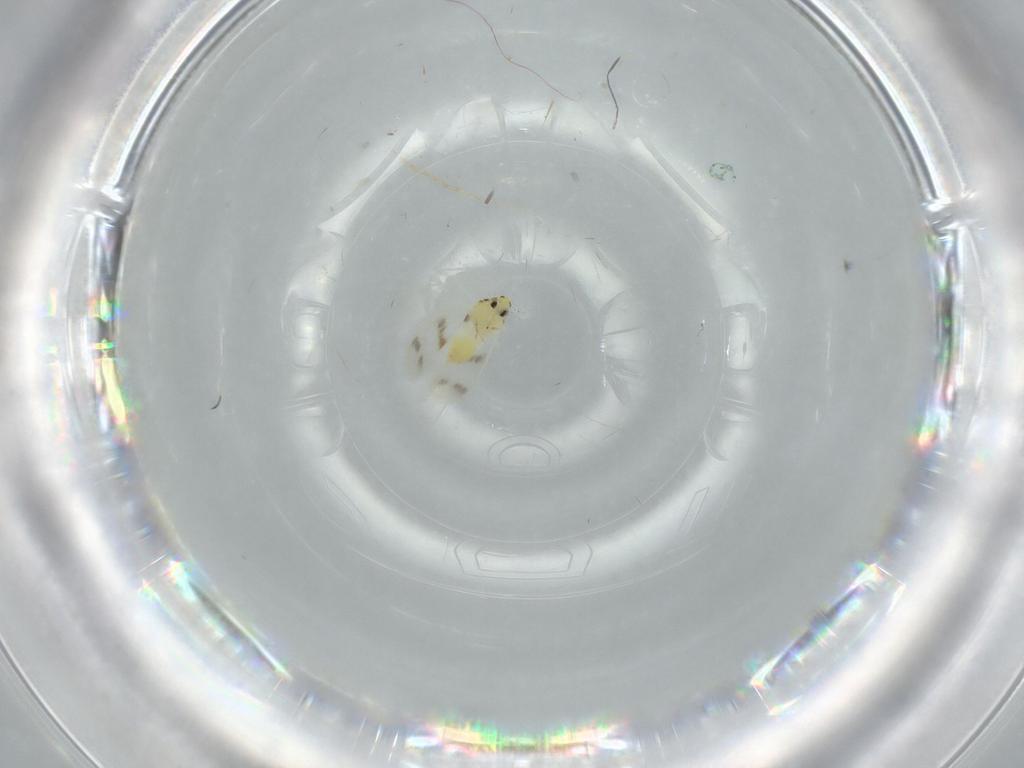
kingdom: Animalia
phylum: Arthropoda
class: Insecta
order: Hemiptera
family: Aleyrodidae
